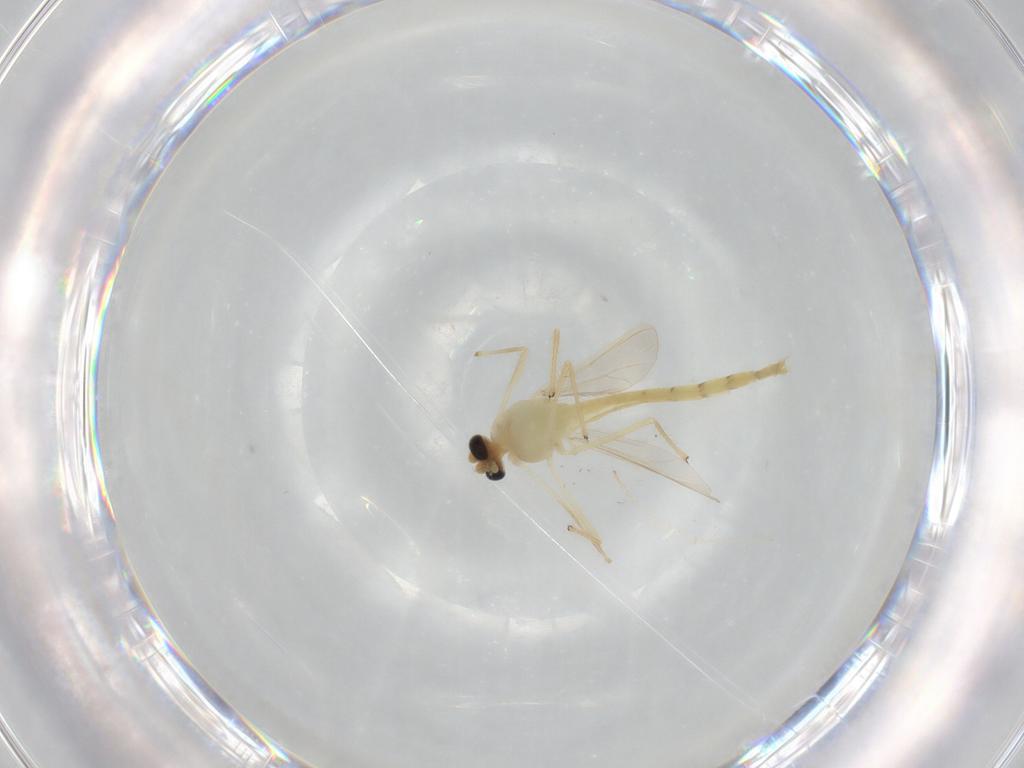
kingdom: Animalia
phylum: Arthropoda
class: Insecta
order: Diptera
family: Chironomidae
